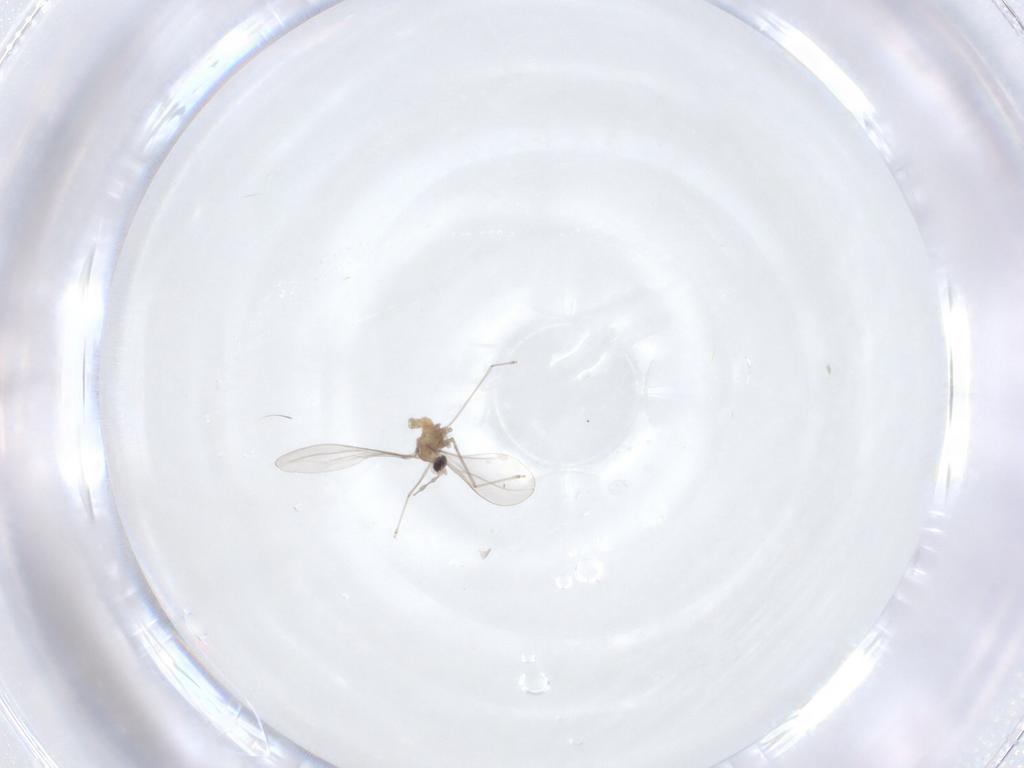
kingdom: Animalia
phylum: Arthropoda
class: Insecta
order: Diptera
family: Cecidomyiidae
